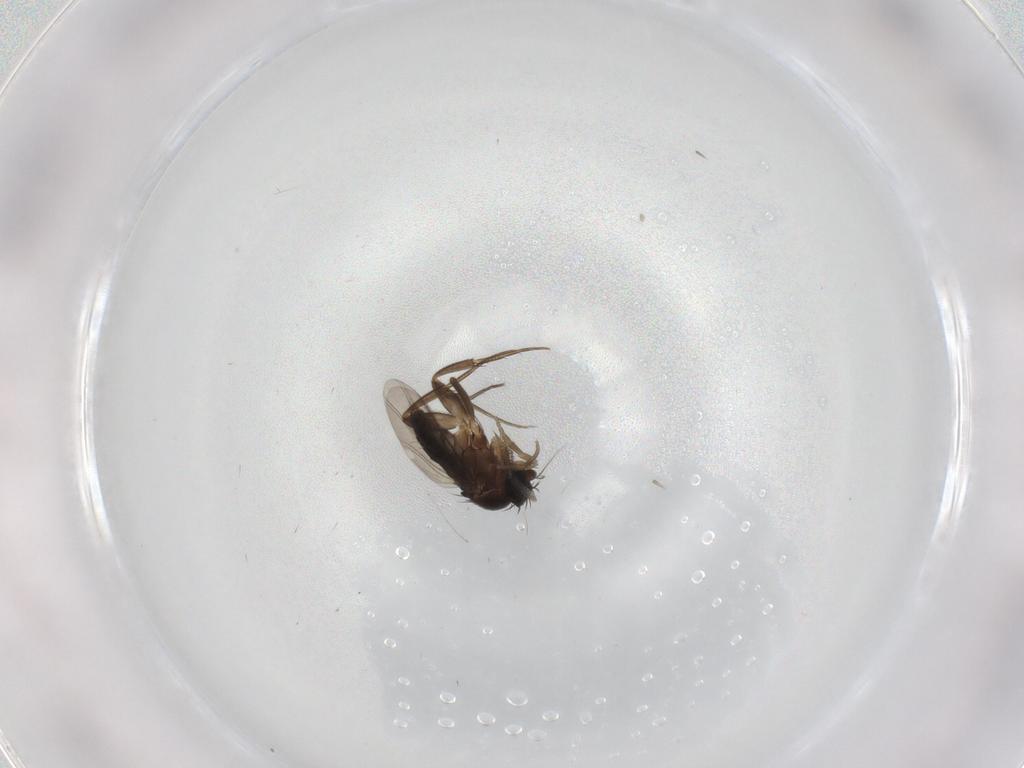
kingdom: Animalia
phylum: Arthropoda
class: Insecta
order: Diptera
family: Phoridae
